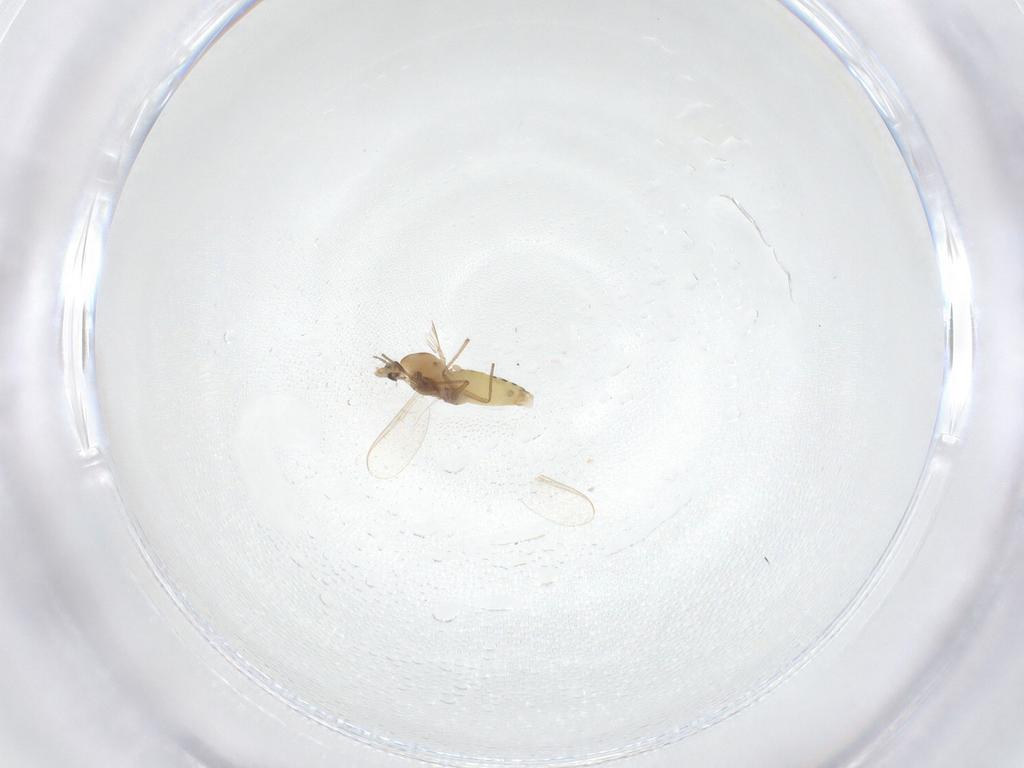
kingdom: Animalia
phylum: Arthropoda
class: Insecta
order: Diptera
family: Chironomidae
